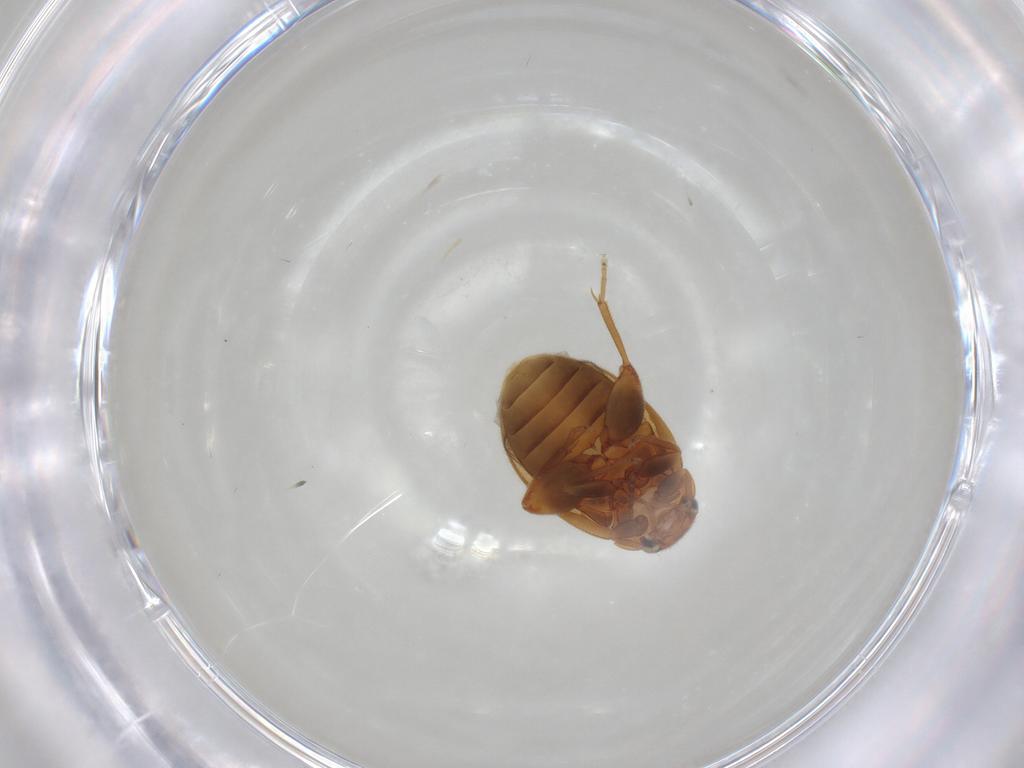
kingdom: Animalia
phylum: Arthropoda
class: Insecta
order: Coleoptera
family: Scirtidae
